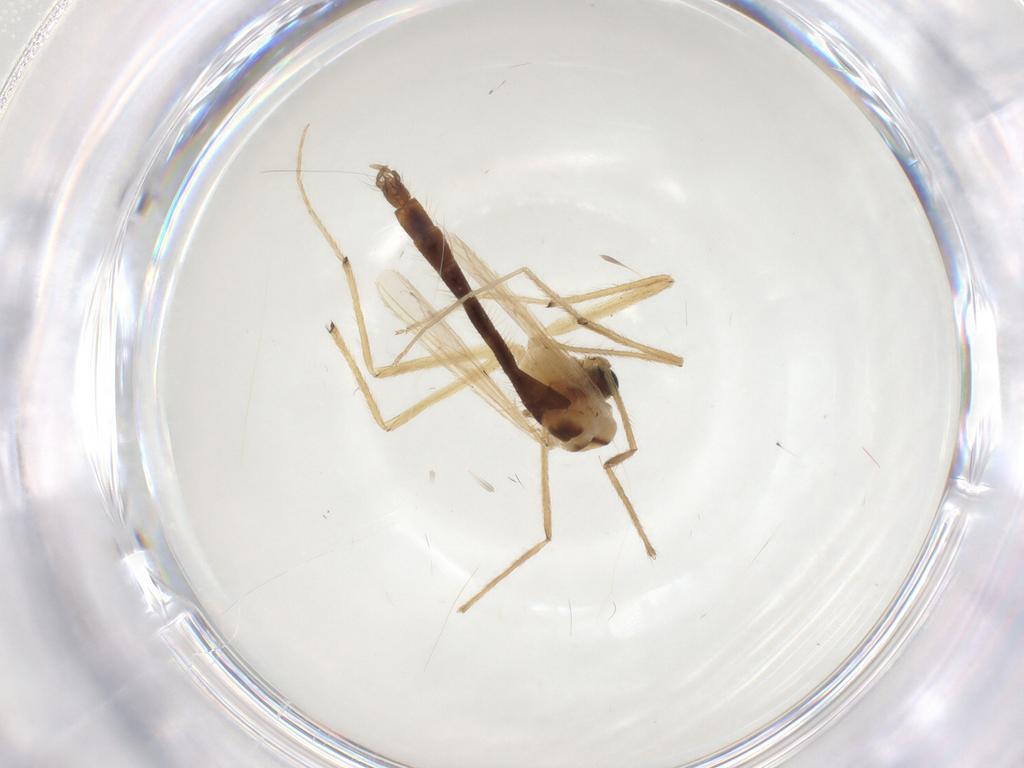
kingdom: Animalia
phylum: Arthropoda
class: Insecta
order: Diptera
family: Chironomidae
